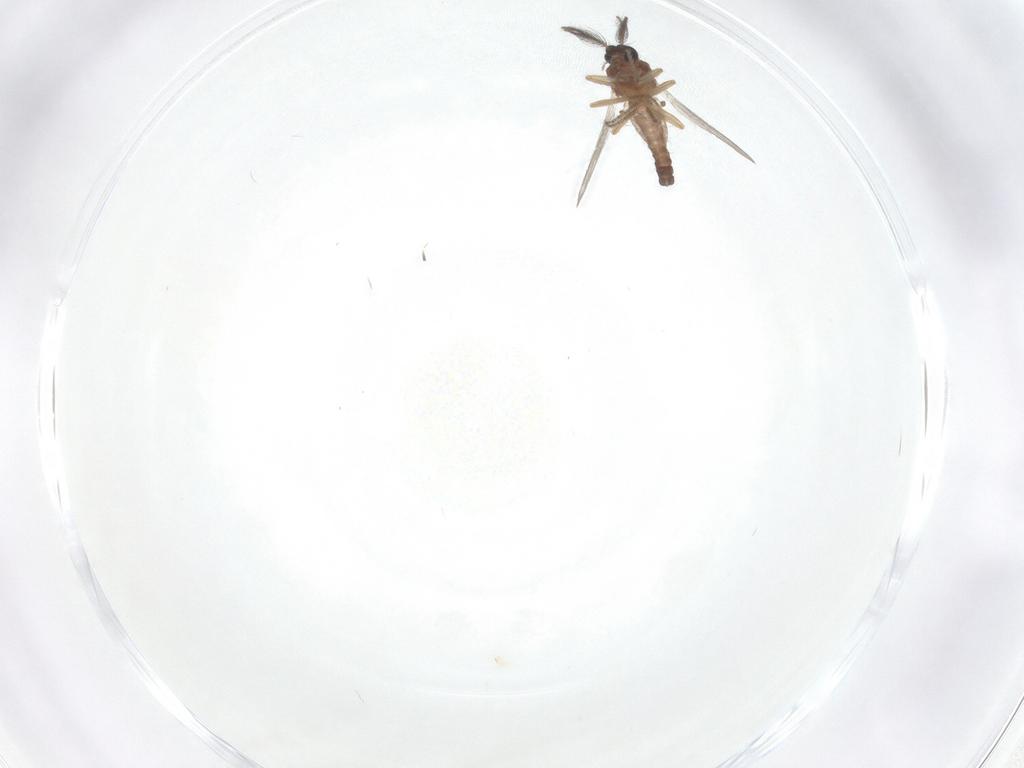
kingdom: Animalia
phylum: Arthropoda
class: Insecta
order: Diptera
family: Ceratopogonidae
